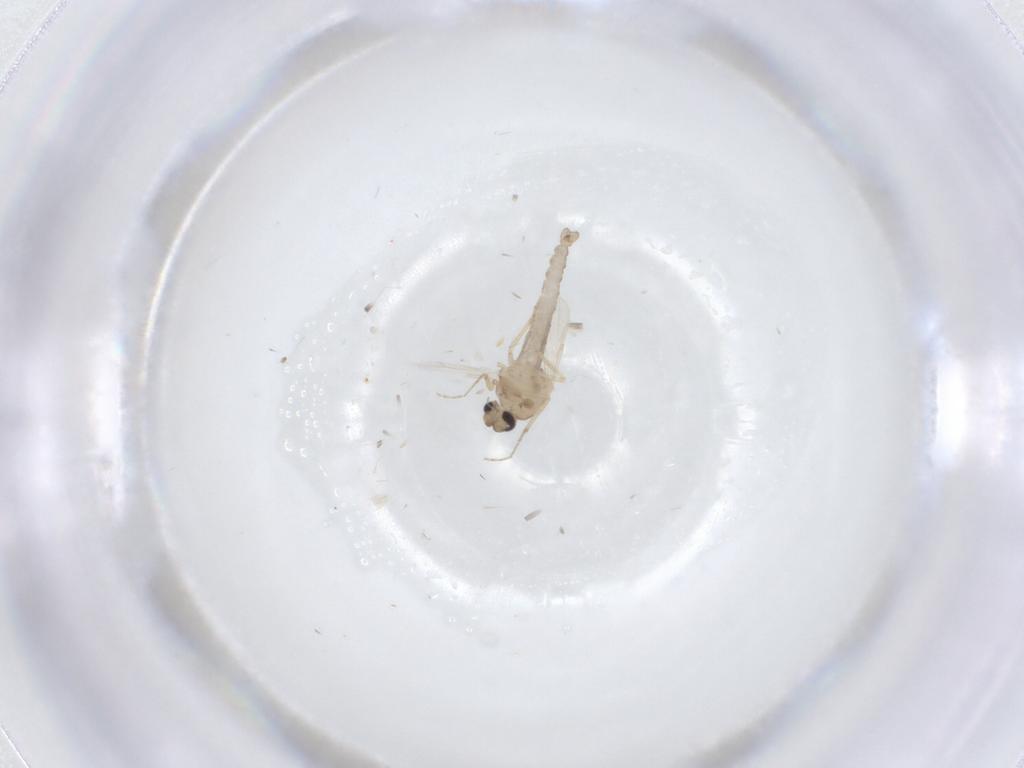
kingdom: Animalia
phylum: Arthropoda
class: Insecta
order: Diptera
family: Ceratopogonidae
